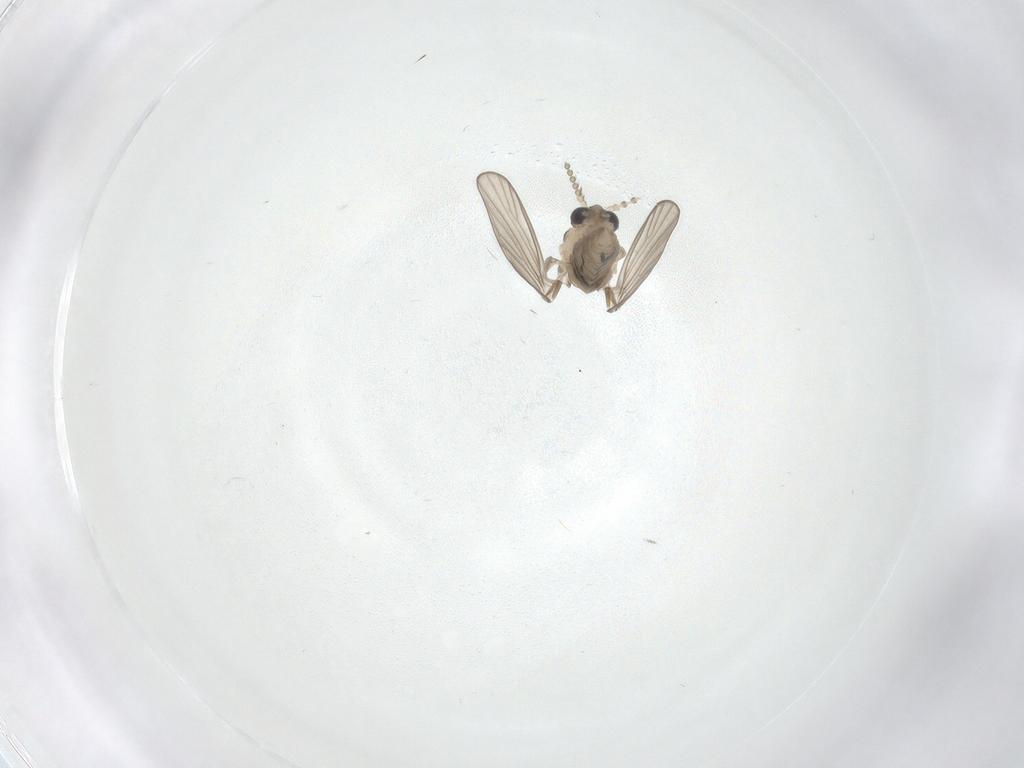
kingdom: Animalia
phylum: Arthropoda
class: Insecta
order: Diptera
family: Psychodidae
